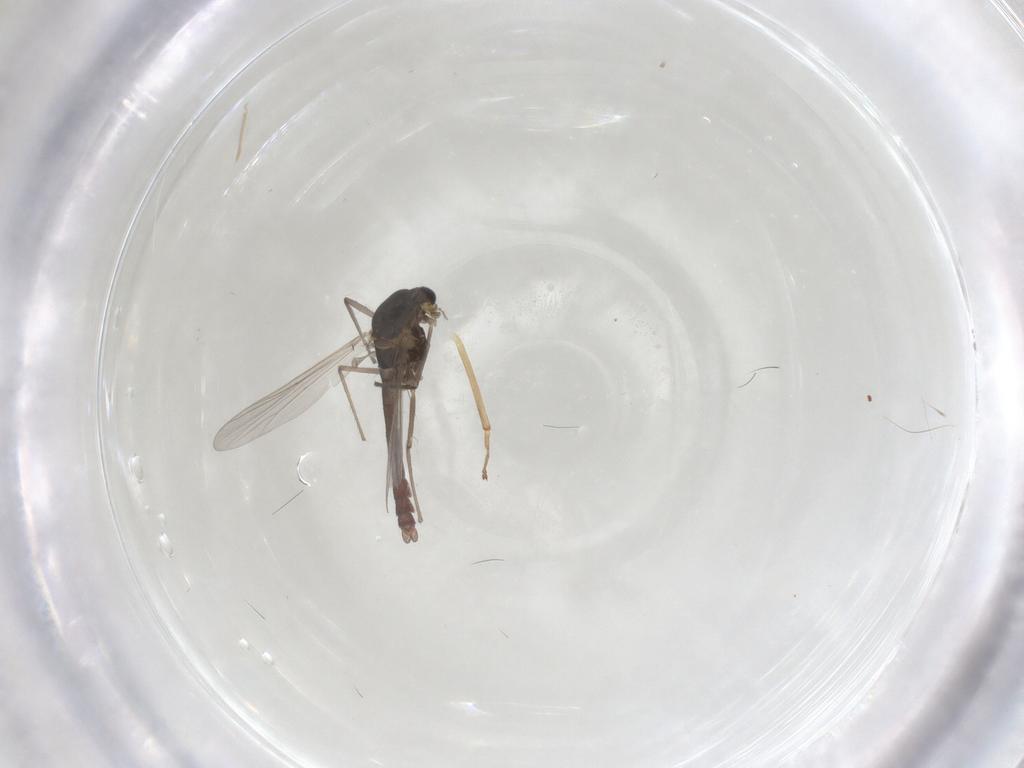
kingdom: Animalia
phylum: Arthropoda
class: Insecta
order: Diptera
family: Chironomidae
